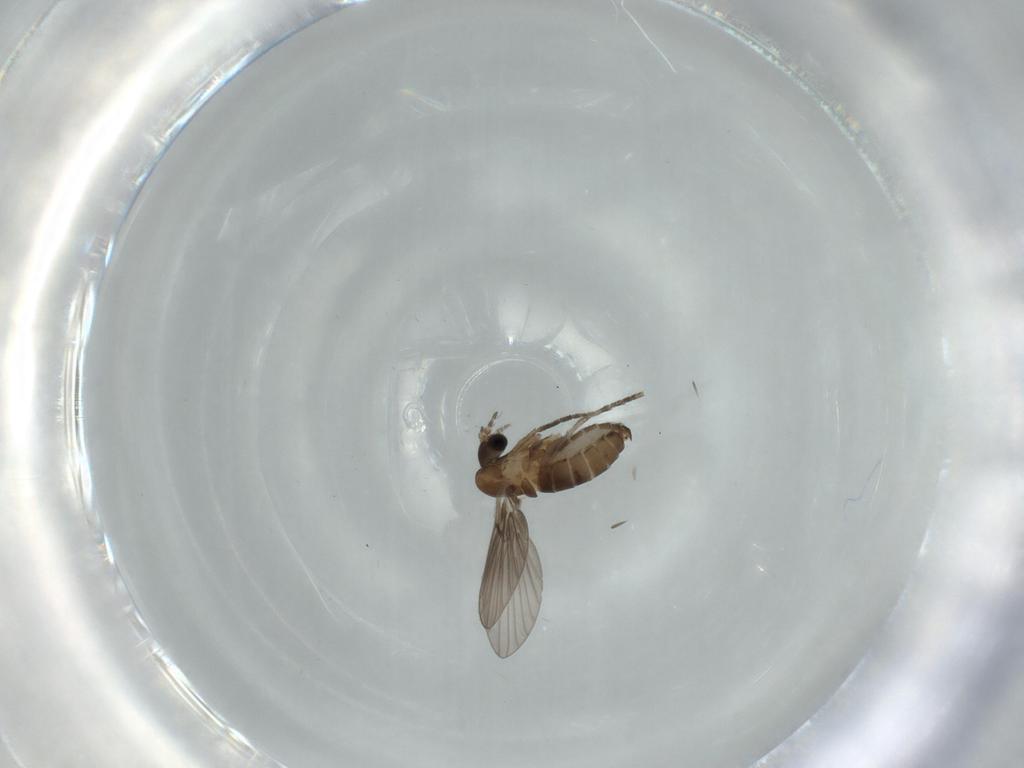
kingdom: Animalia
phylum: Arthropoda
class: Insecta
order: Diptera
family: Psychodidae
